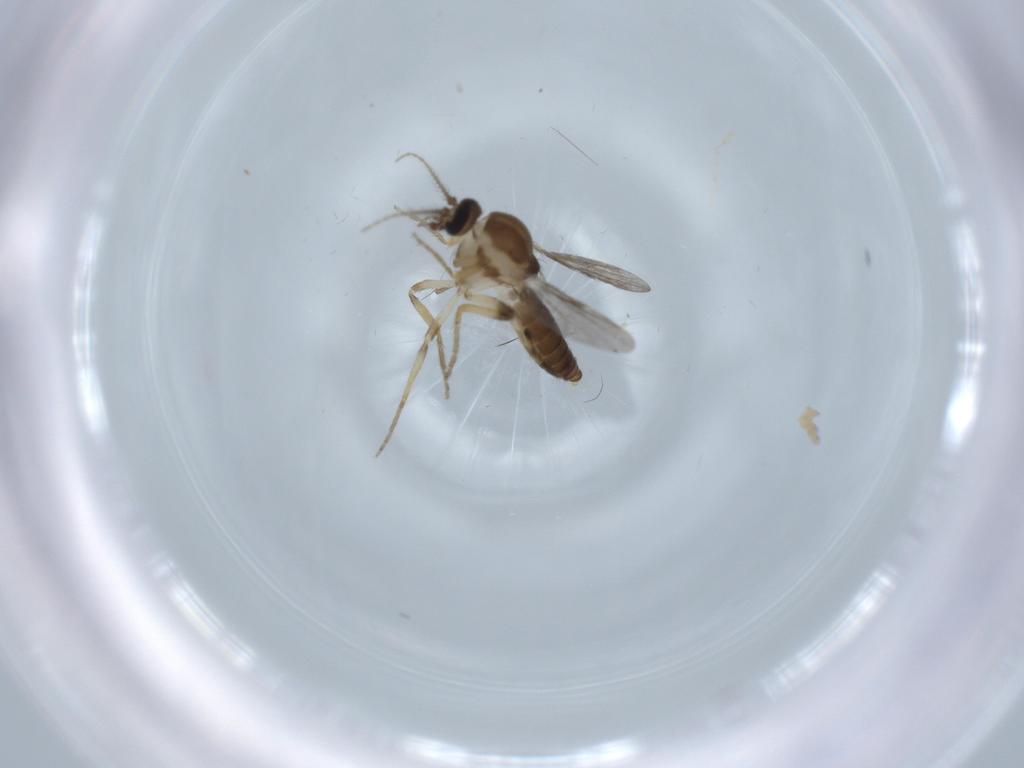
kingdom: Animalia
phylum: Arthropoda
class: Insecta
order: Diptera
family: Ceratopogonidae
